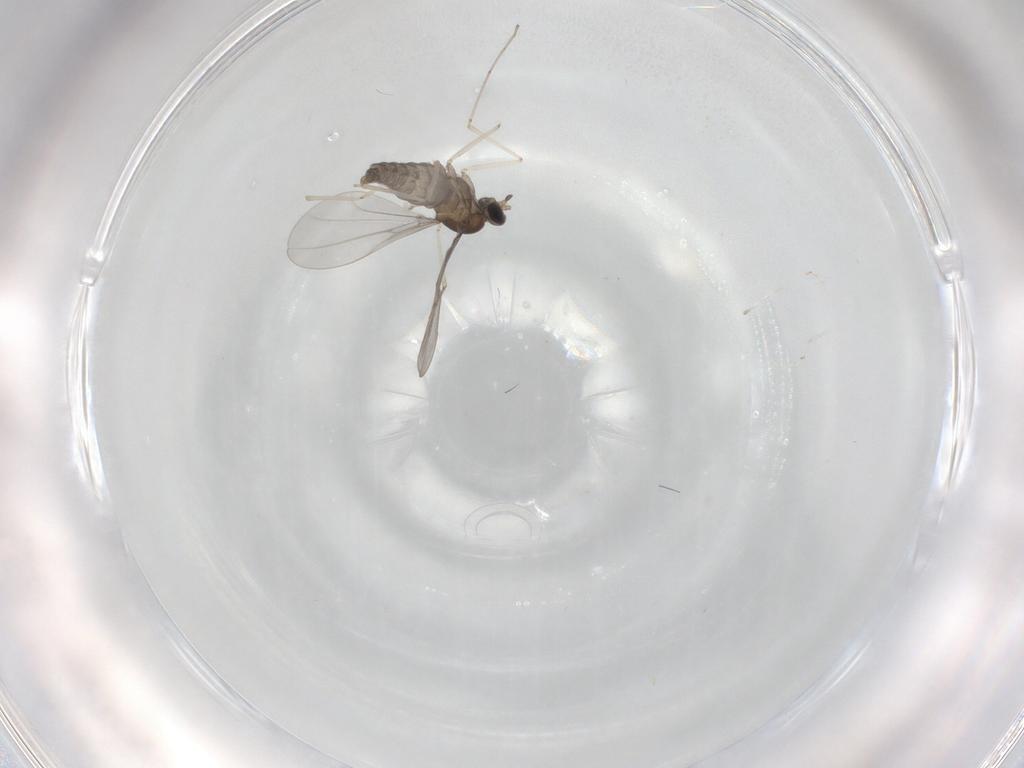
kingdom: Animalia
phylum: Arthropoda
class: Insecta
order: Diptera
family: Cecidomyiidae
